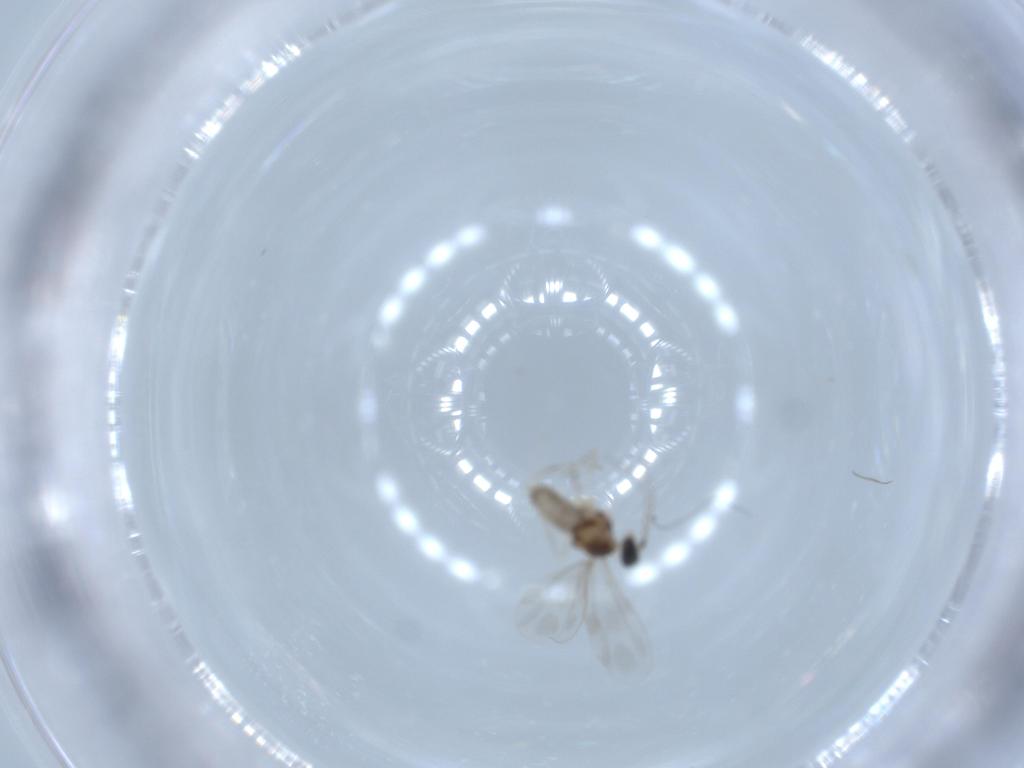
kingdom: Animalia
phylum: Arthropoda
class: Insecta
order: Diptera
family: Cecidomyiidae
